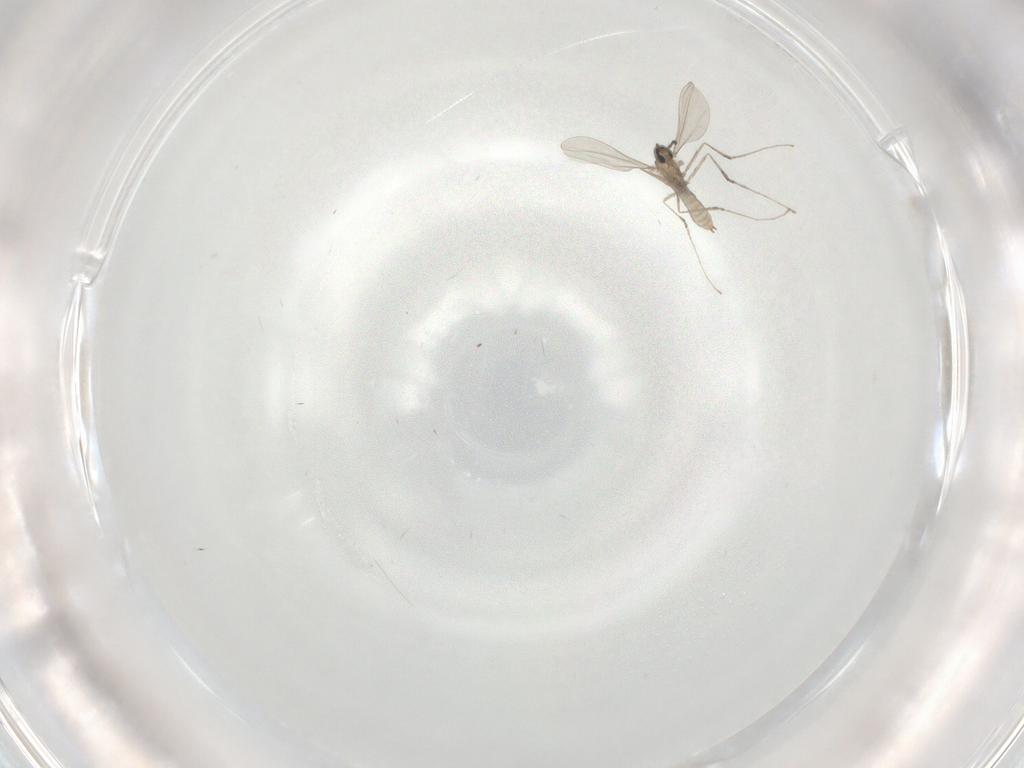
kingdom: Animalia
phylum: Arthropoda
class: Insecta
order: Diptera
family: Cecidomyiidae
